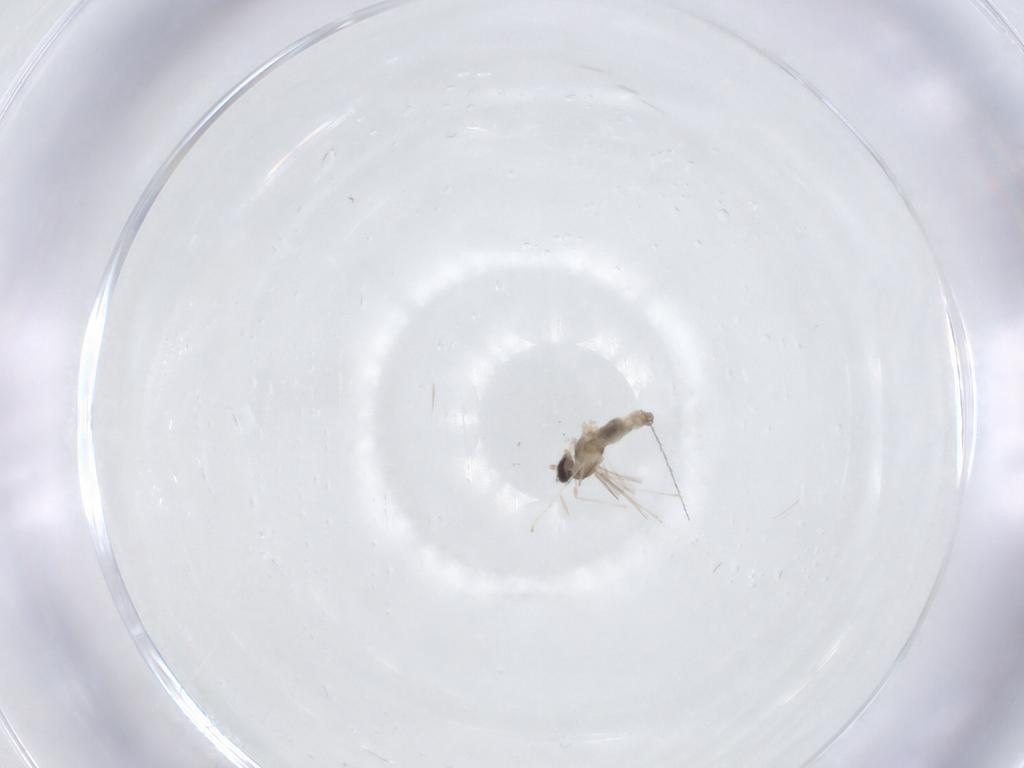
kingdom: Animalia
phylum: Arthropoda
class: Insecta
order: Diptera
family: Cecidomyiidae
